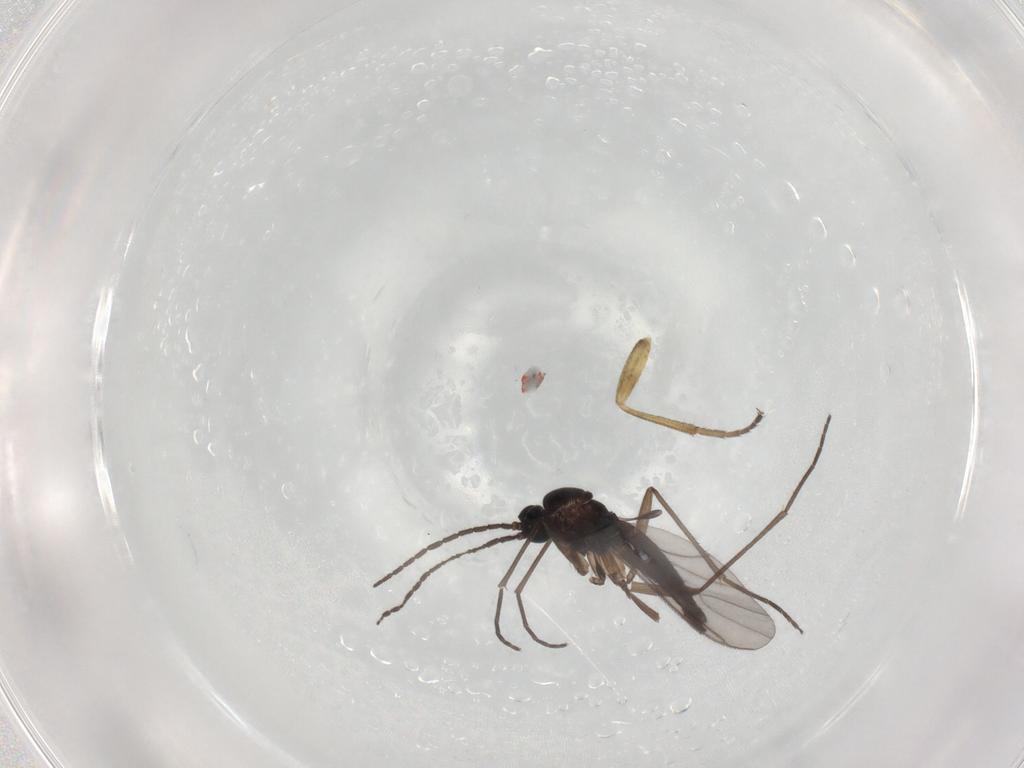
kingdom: Animalia
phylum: Arthropoda
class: Insecta
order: Diptera
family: Sciaridae
